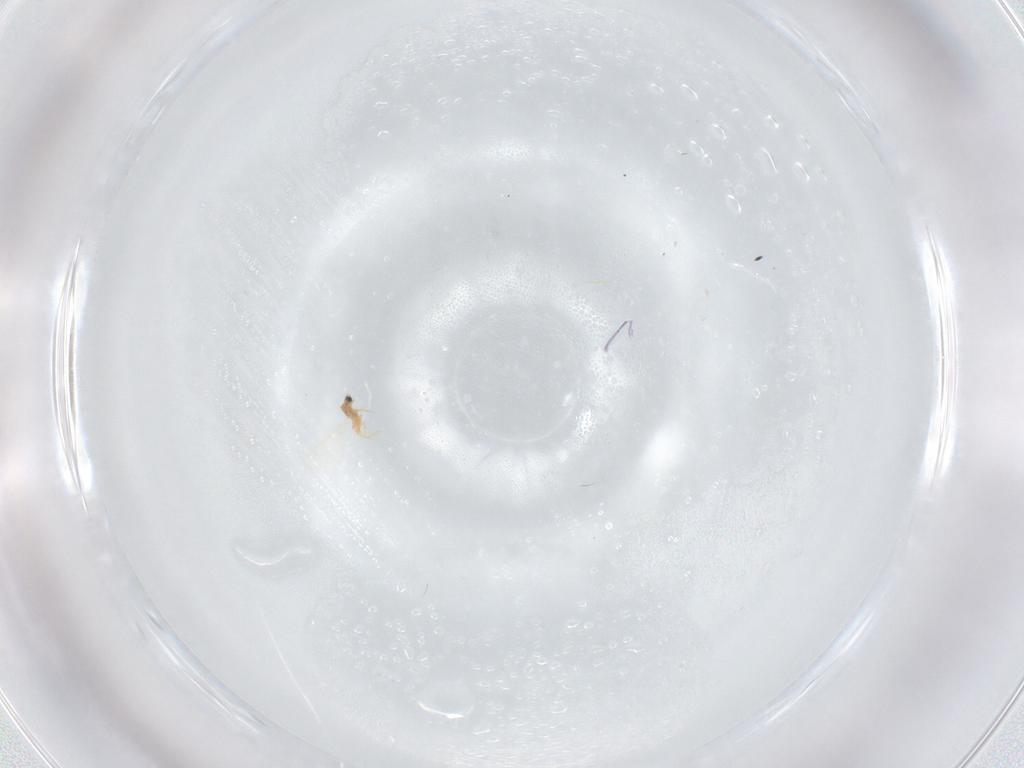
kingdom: Animalia
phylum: Arthropoda
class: Insecta
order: Diptera
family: Ceratopogonidae
